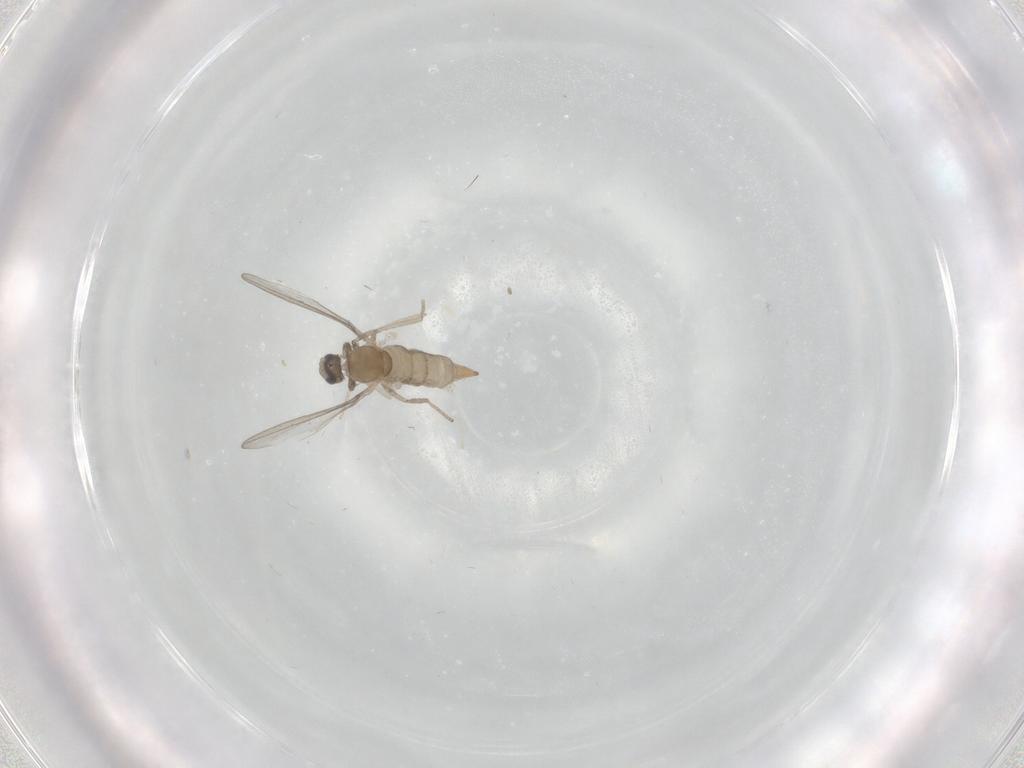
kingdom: Animalia
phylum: Arthropoda
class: Insecta
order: Diptera
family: Cecidomyiidae
